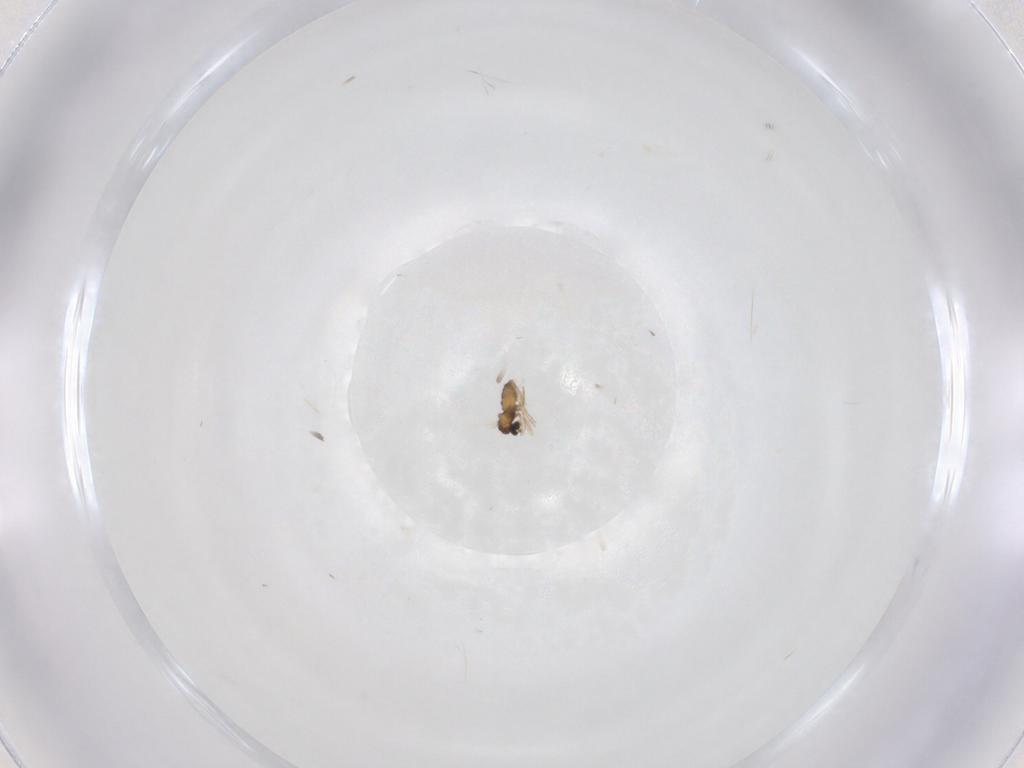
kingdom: Animalia
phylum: Arthropoda
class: Insecta
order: Diptera
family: Cecidomyiidae
